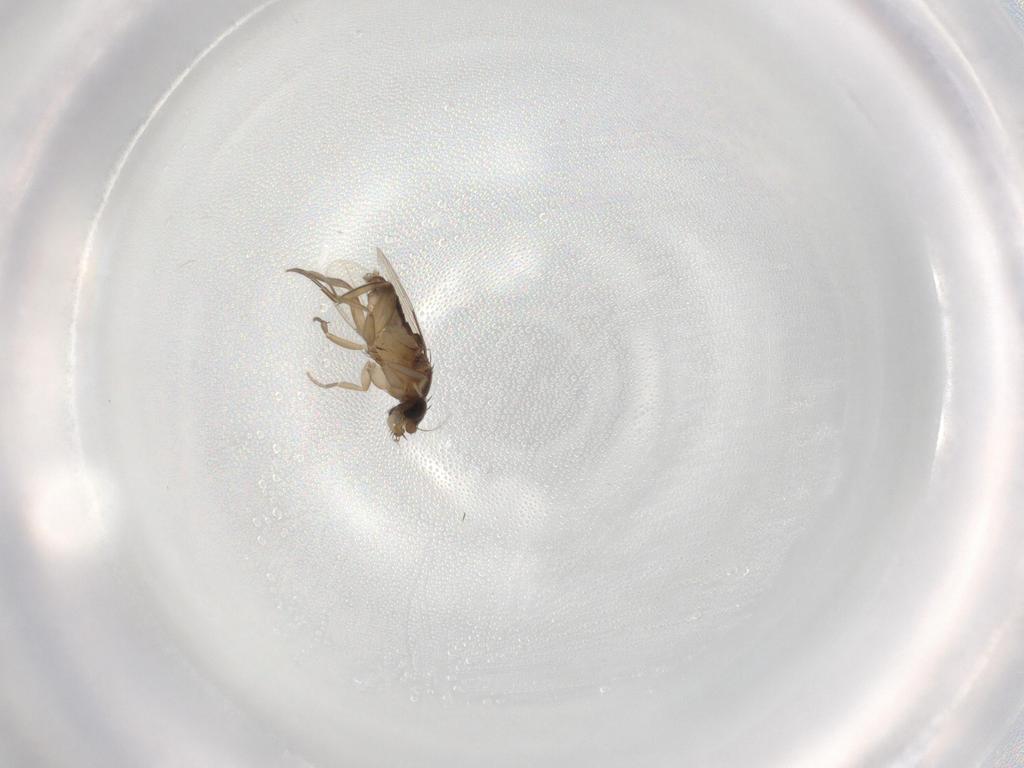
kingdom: Animalia
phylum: Arthropoda
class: Insecta
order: Diptera
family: Phoridae
